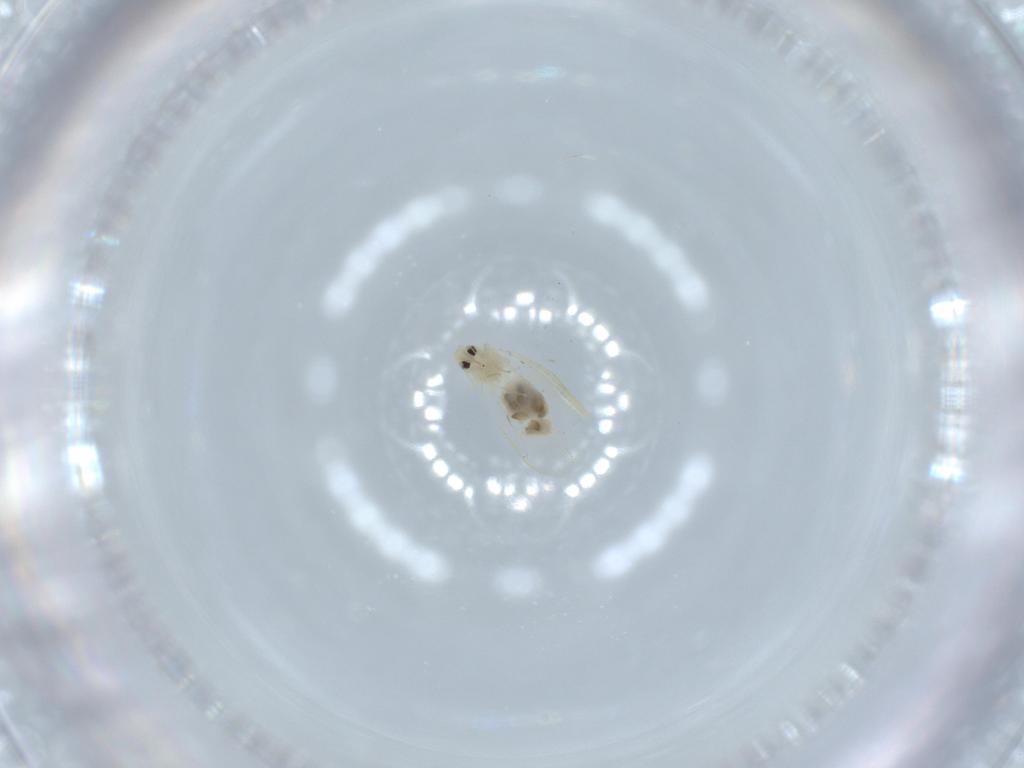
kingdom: Animalia
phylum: Arthropoda
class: Insecta
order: Hemiptera
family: Aleyrodidae
